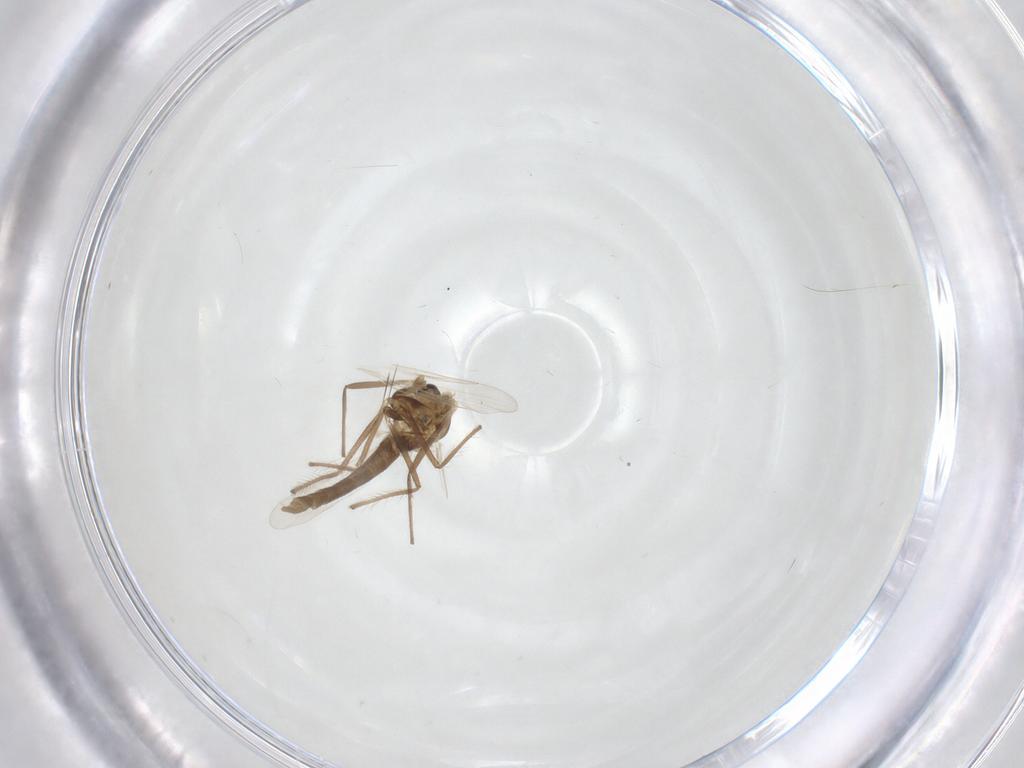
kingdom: Animalia
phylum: Arthropoda
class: Insecta
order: Diptera
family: Chironomidae
